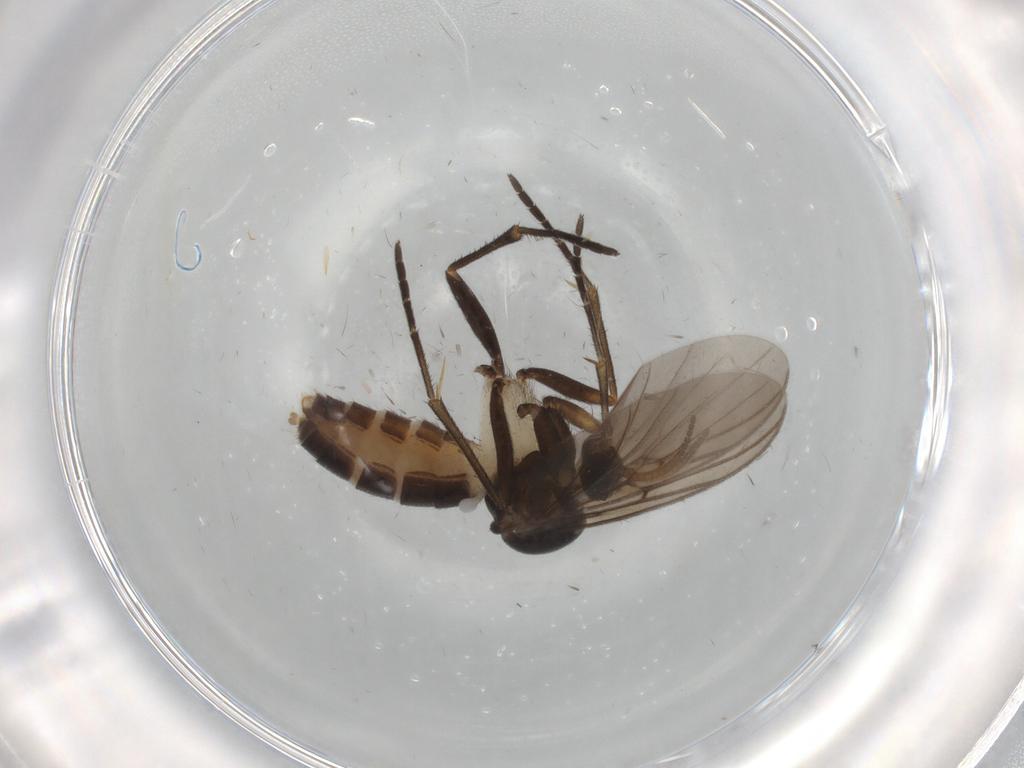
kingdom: Animalia
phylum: Arthropoda
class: Insecta
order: Diptera
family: Mycetophilidae
